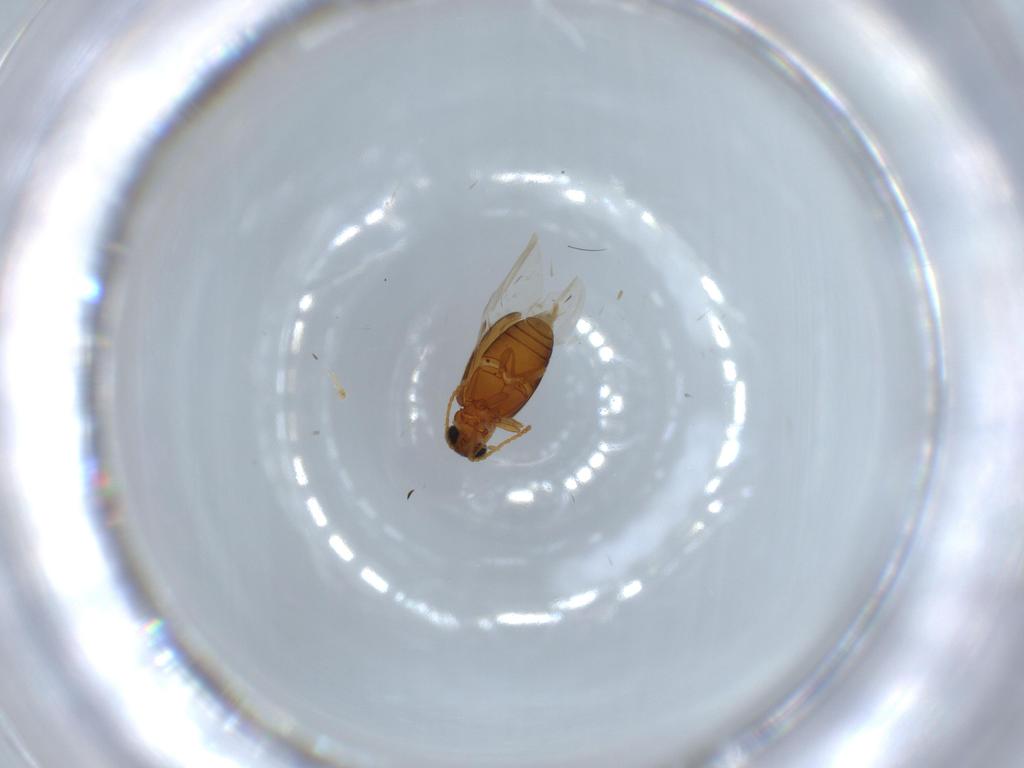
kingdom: Animalia
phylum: Arthropoda
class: Insecta
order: Coleoptera
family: Aderidae
